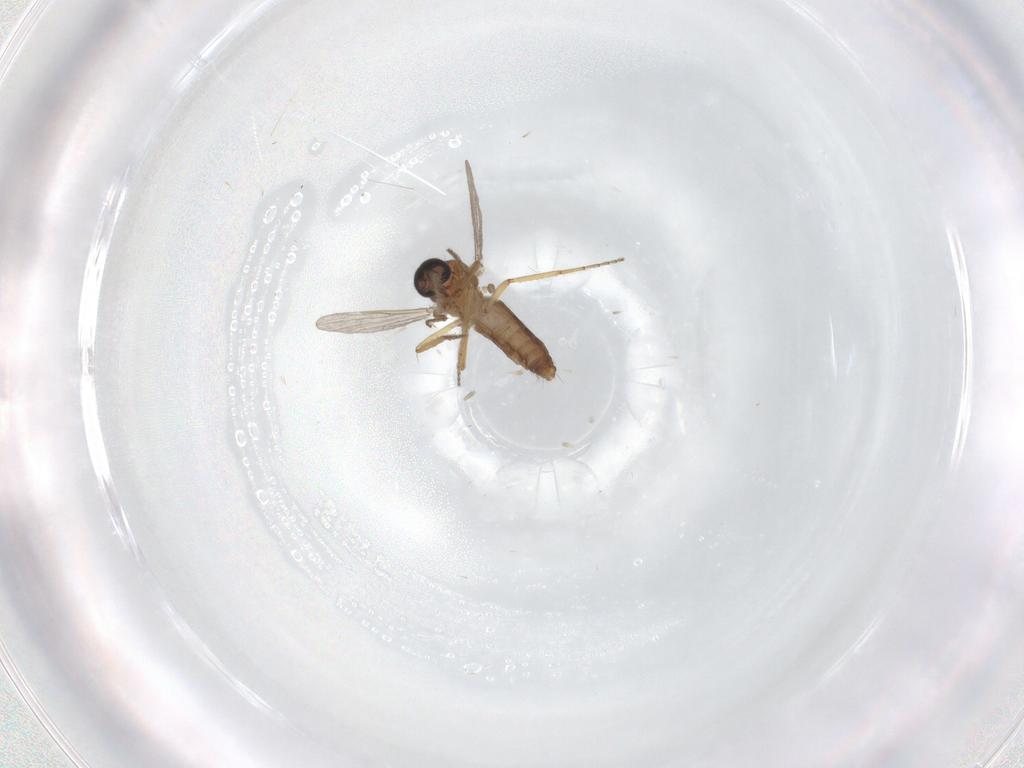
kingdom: Animalia
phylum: Arthropoda
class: Insecta
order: Diptera
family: Ceratopogonidae
